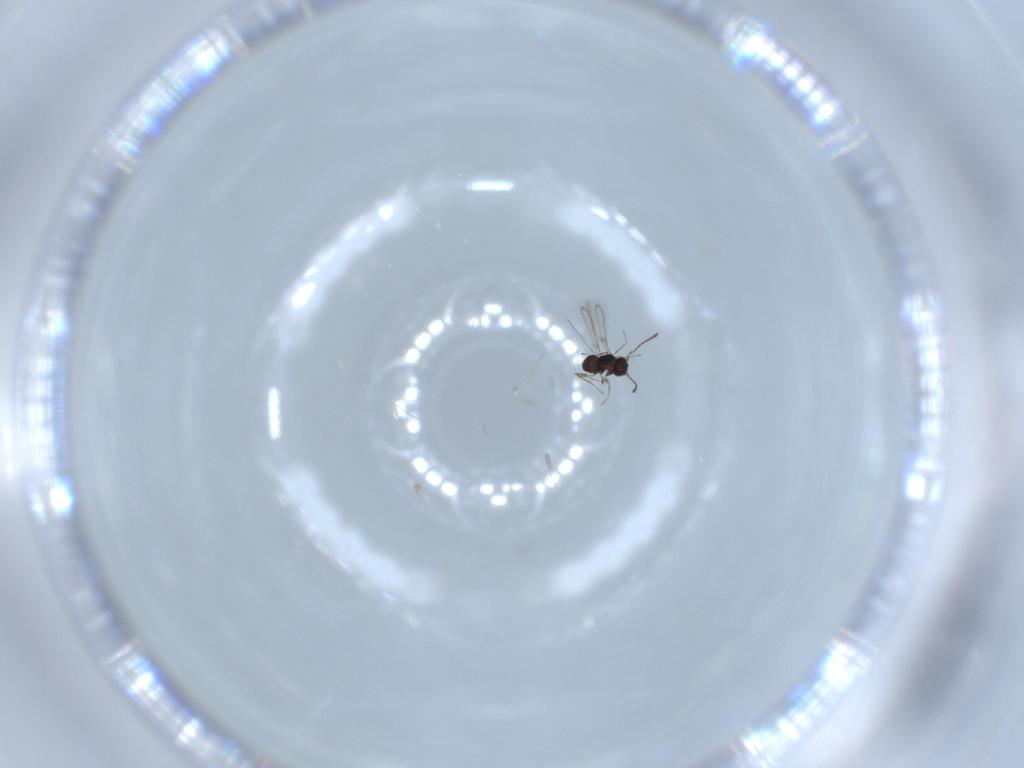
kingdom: Animalia
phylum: Arthropoda
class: Insecta
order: Hymenoptera
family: Mymaridae
